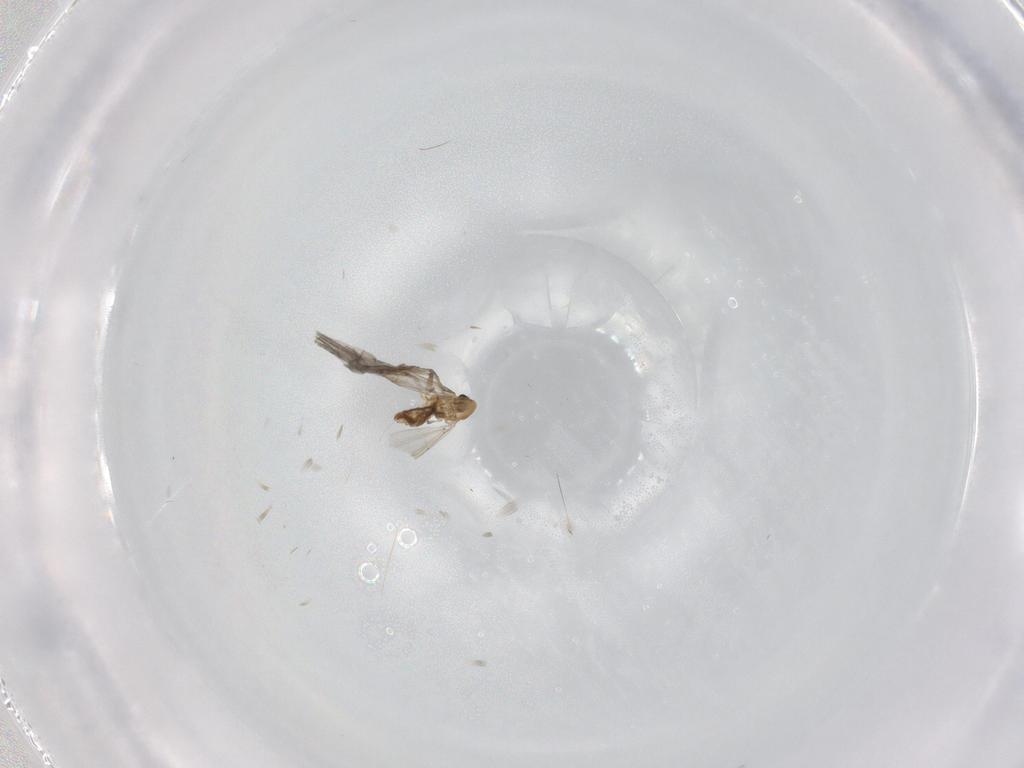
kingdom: Animalia
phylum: Arthropoda
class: Insecta
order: Diptera
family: Chironomidae
